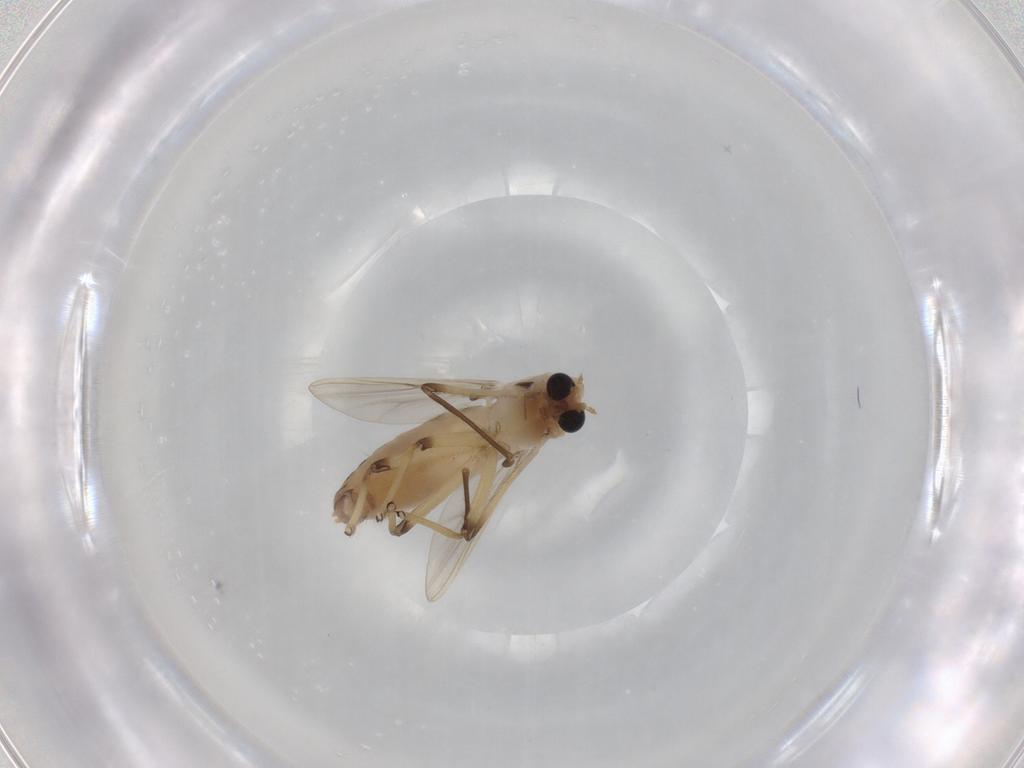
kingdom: Animalia
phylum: Arthropoda
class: Insecta
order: Diptera
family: Chironomidae
